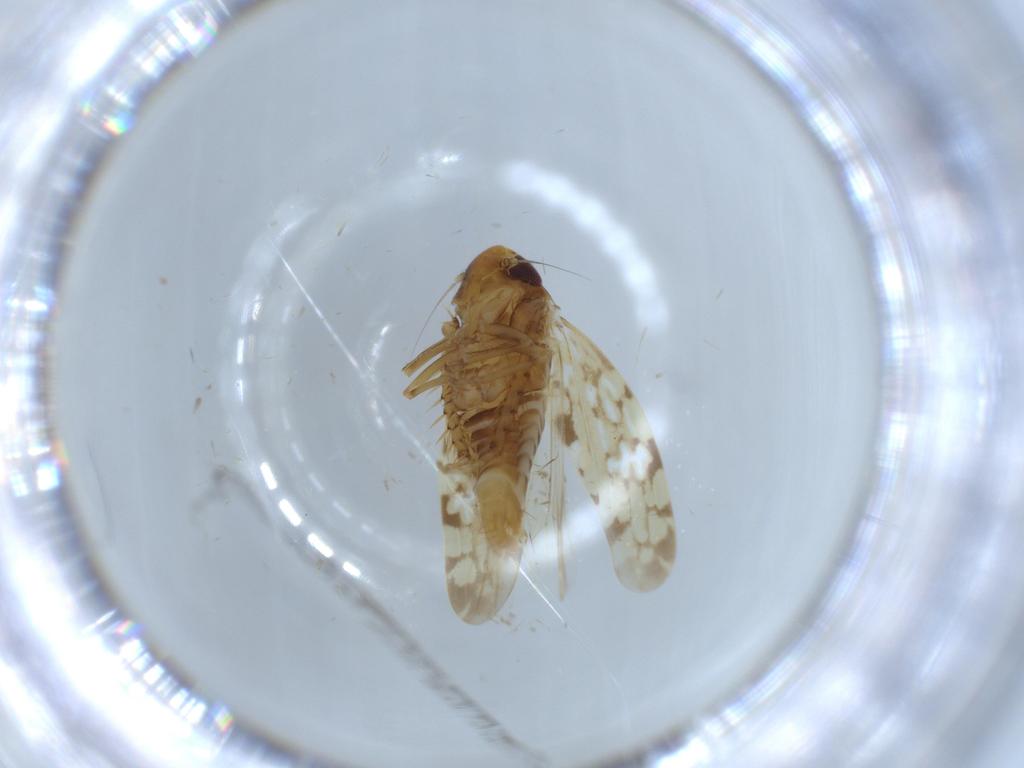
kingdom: Animalia
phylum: Arthropoda
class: Insecta
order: Hemiptera
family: Cicadellidae
